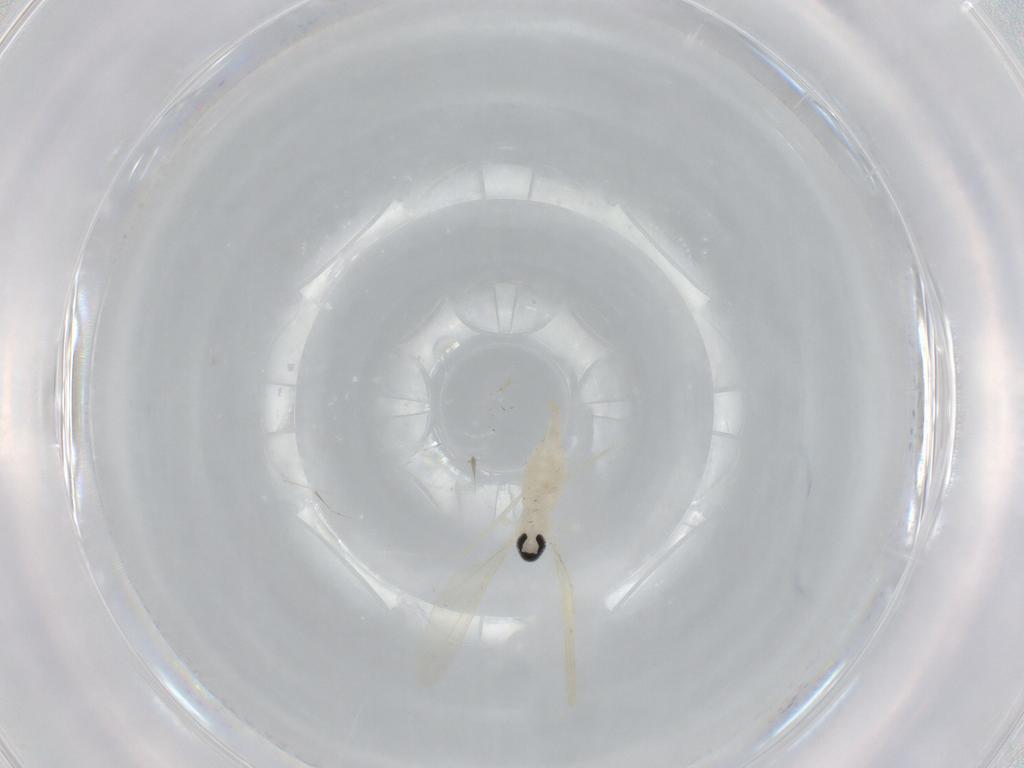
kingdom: Animalia
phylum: Arthropoda
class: Insecta
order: Diptera
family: Cecidomyiidae
